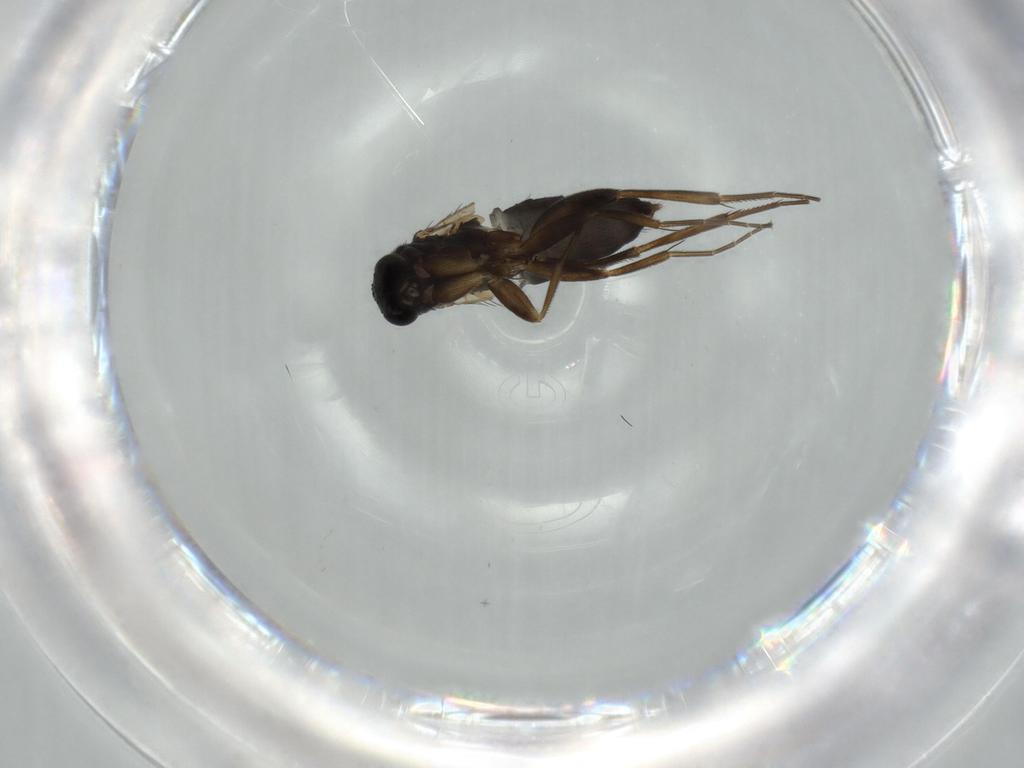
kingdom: Animalia
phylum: Arthropoda
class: Insecta
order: Diptera
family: Phoridae
